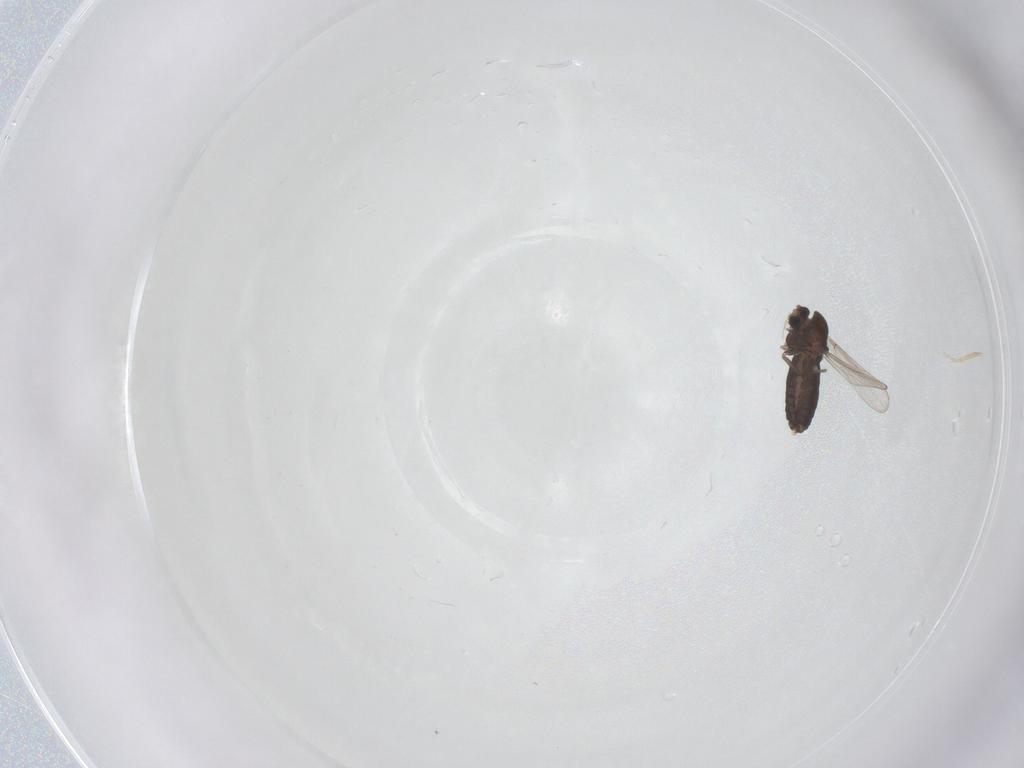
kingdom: Animalia
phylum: Arthropoda
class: Insecta
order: Diptera
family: Chironomidae
